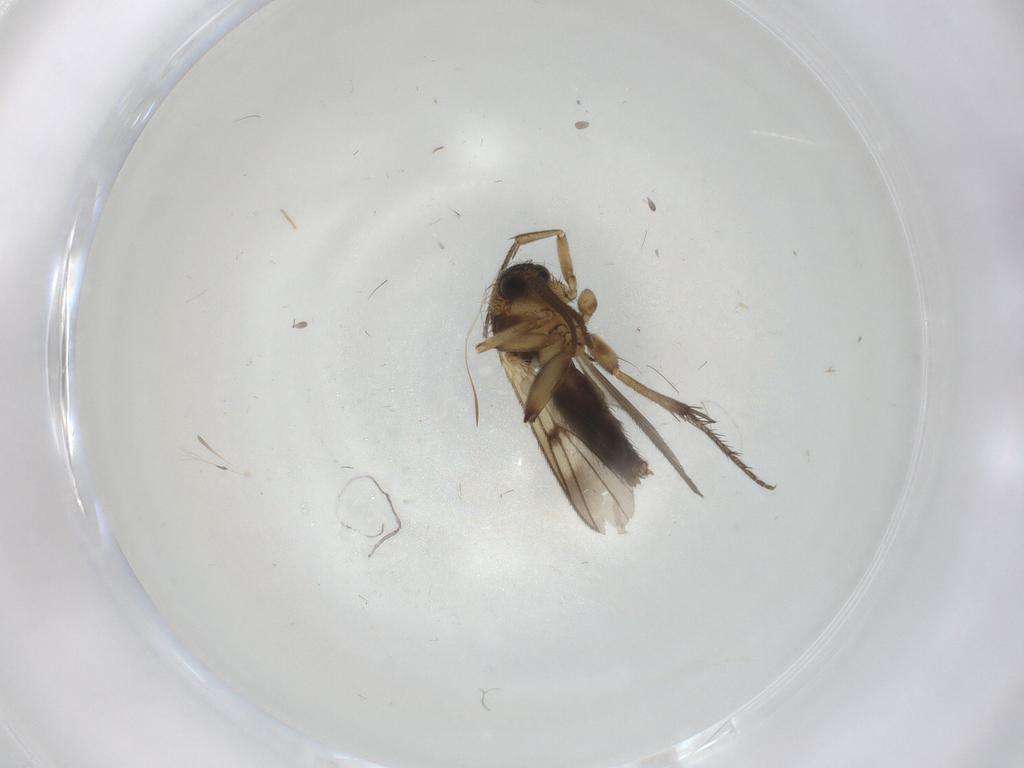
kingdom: Animalia
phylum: Arthropoda
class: Insecta
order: Diptera
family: Mycetophilidae
